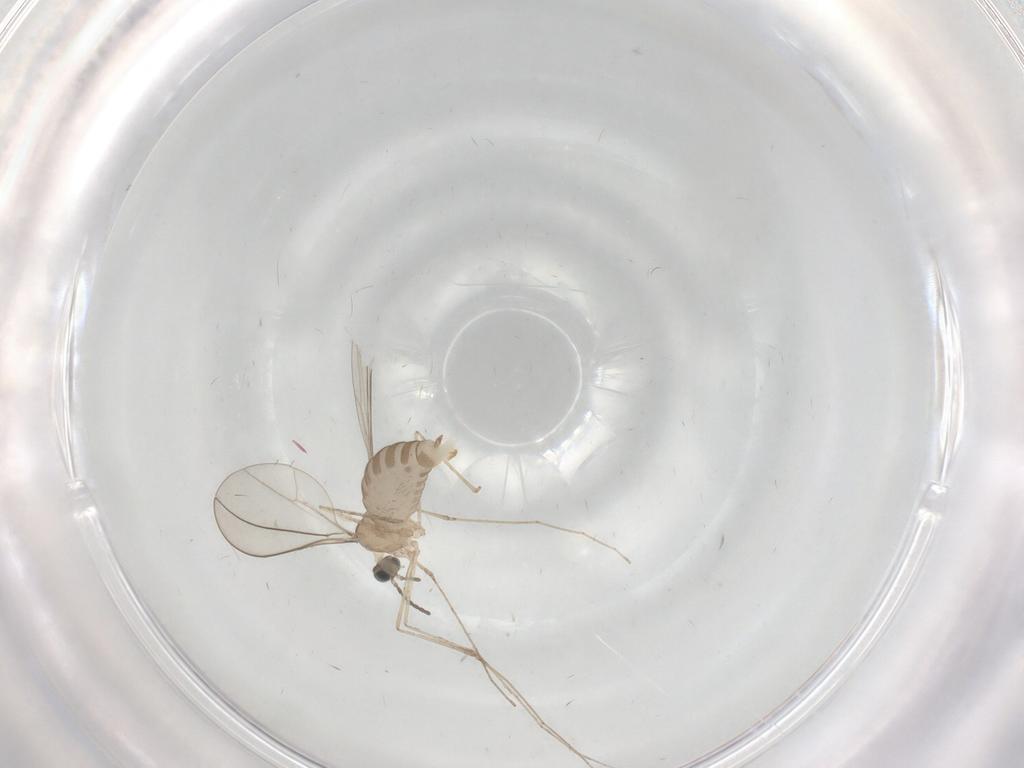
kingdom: Animalia
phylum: Arthropoda
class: Insecta
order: Diptera
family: Cecidomyiidae
